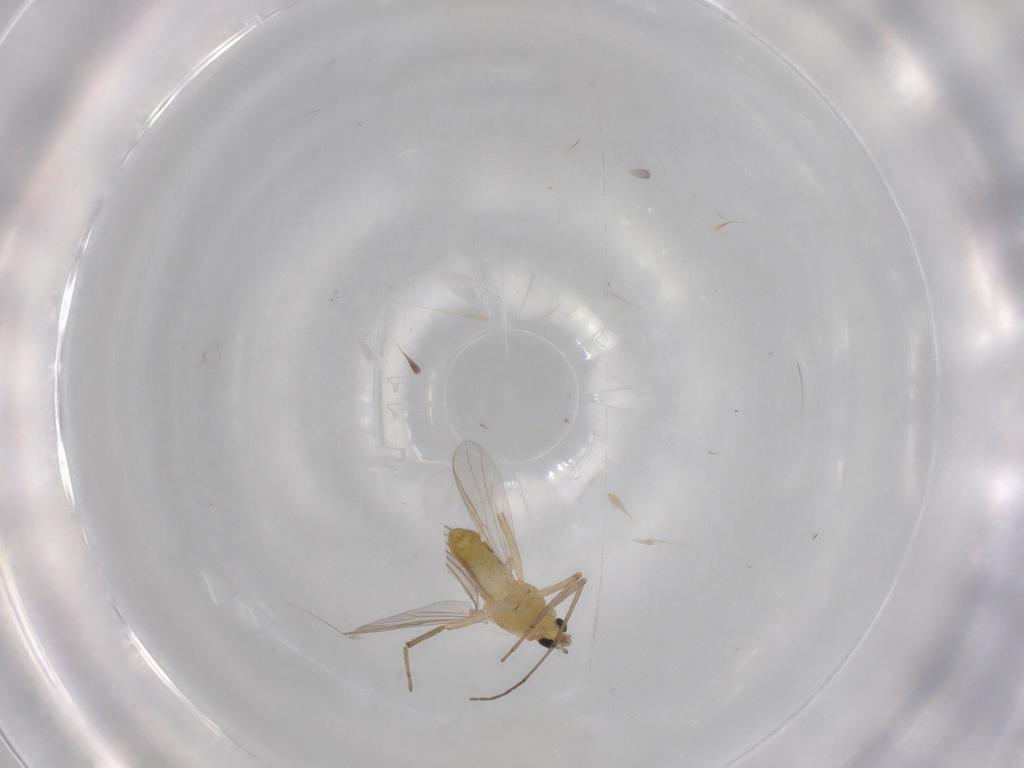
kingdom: Animalia
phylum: Arthropoda
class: Insecta
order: Diptera
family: Chironomidae
